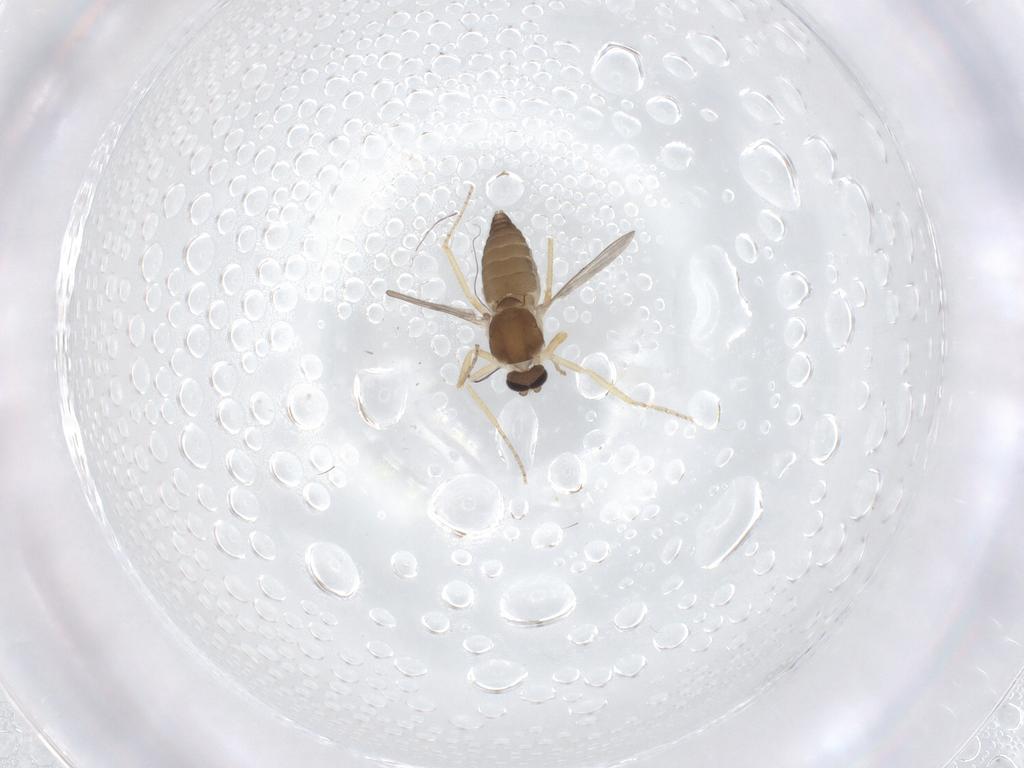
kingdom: Animalia
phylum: Arthropoda
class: Insecta
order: Diptera
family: Ceratopogonidae
